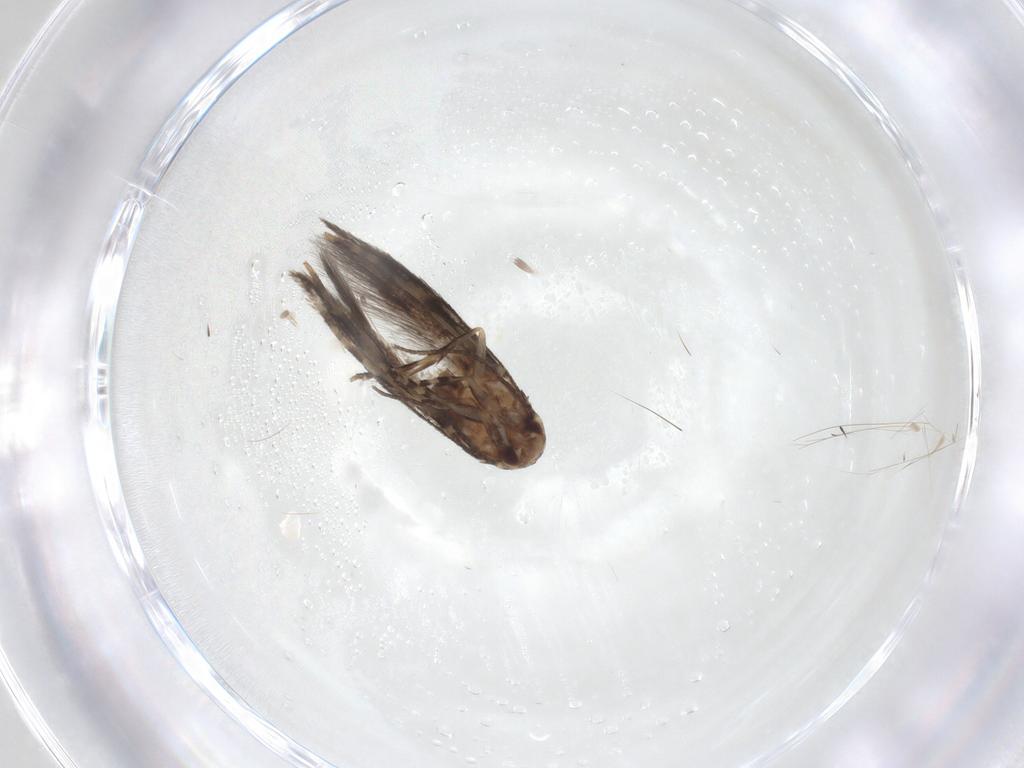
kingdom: Animalia
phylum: Arthropoda
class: Insecta
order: Lepidoptera
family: Elachistidae
